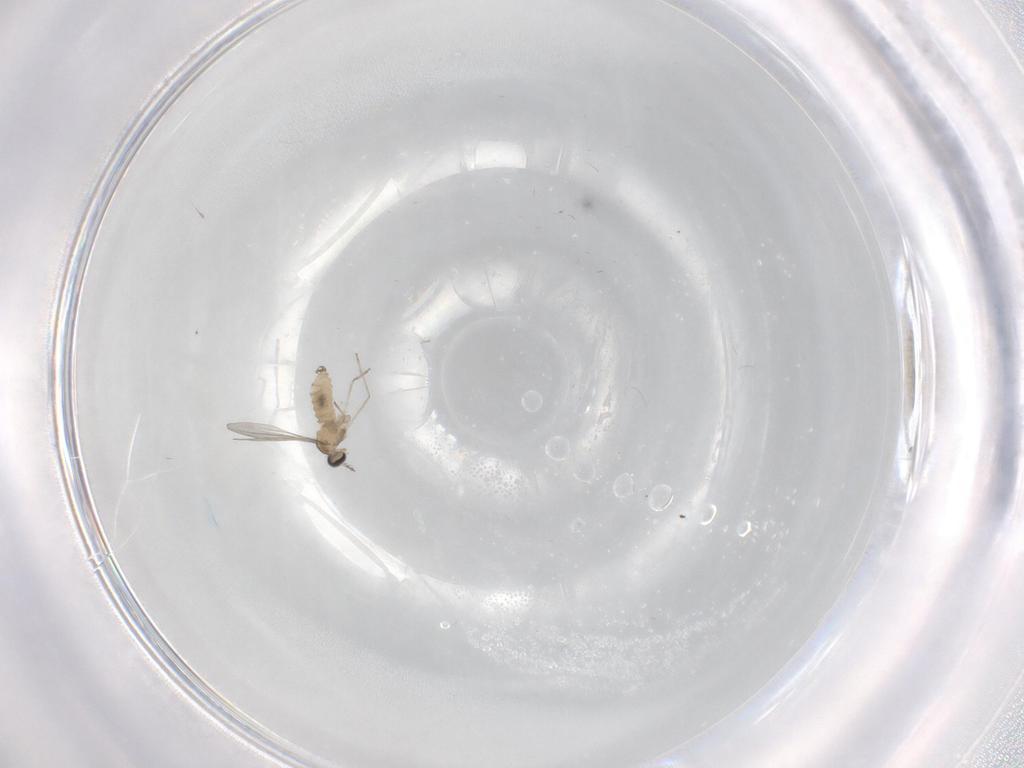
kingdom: Animalia
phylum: Arthropoda
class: Insecta
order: Diptera
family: Cecidomyiidae
